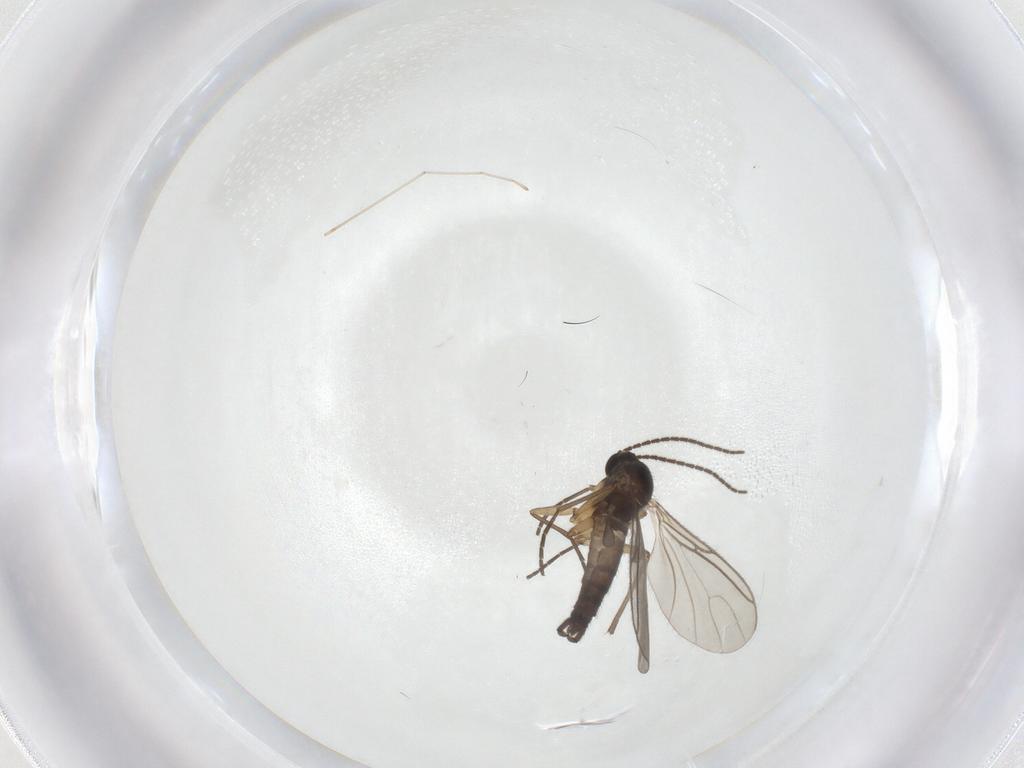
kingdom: Animalia
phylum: Arthropoda
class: Insecta
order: Diptera
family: Sciaridae
